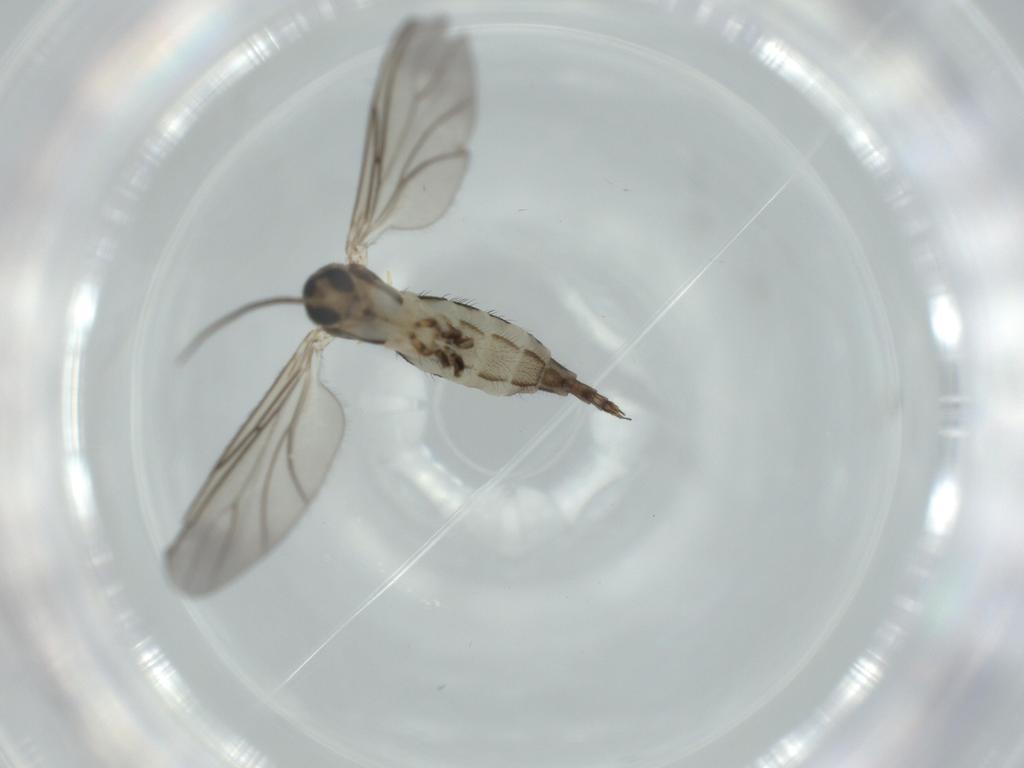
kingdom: Animalia
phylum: Arthropoda
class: Insecta
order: Diptera
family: Sciaridae
